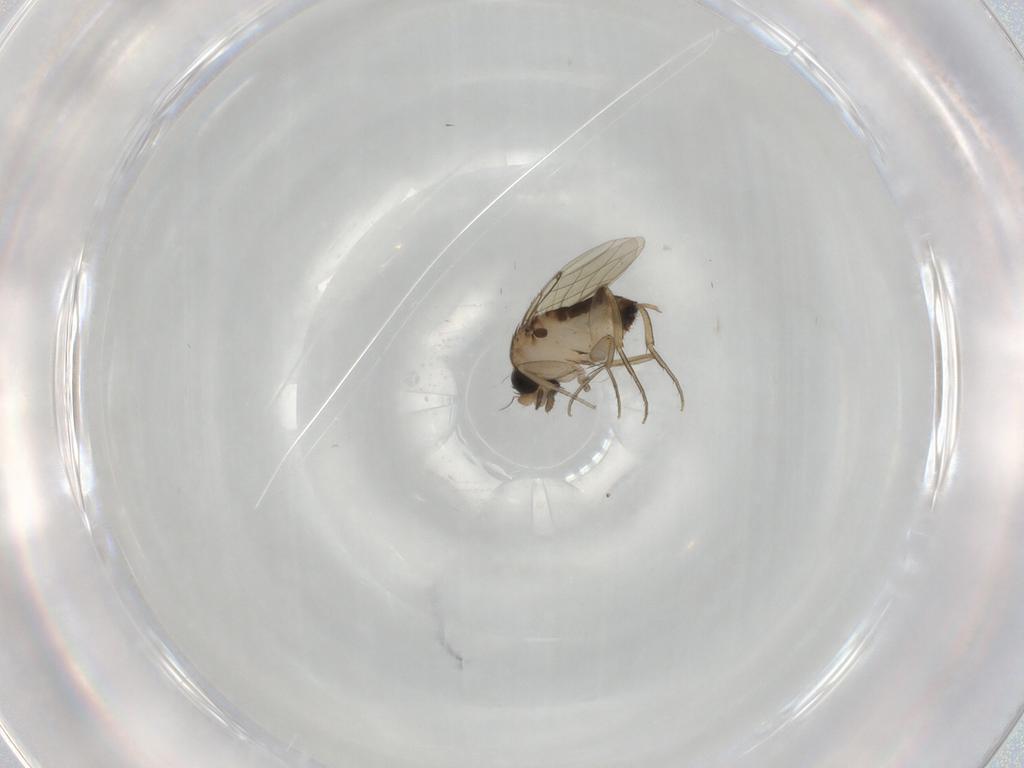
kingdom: Animalia
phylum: Arthropoda
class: Insecta
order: Diptera
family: Phoridae
